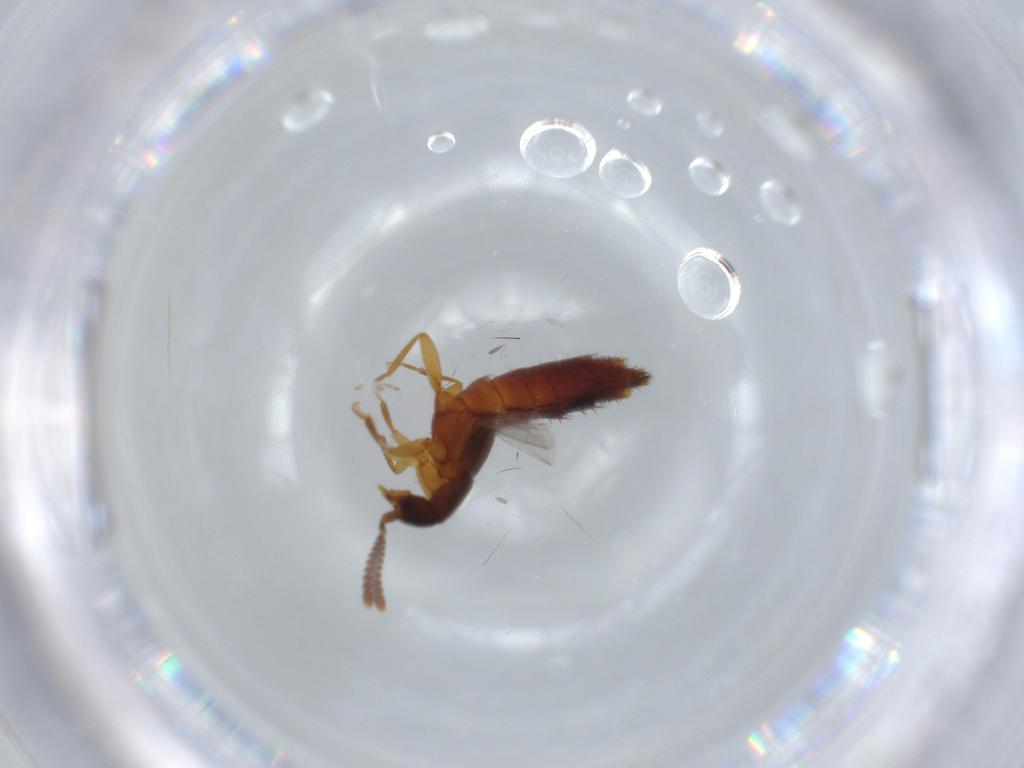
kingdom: Animalia
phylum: Arthropoda
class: Insecta
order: Coleoptera
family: Staphylinidae
